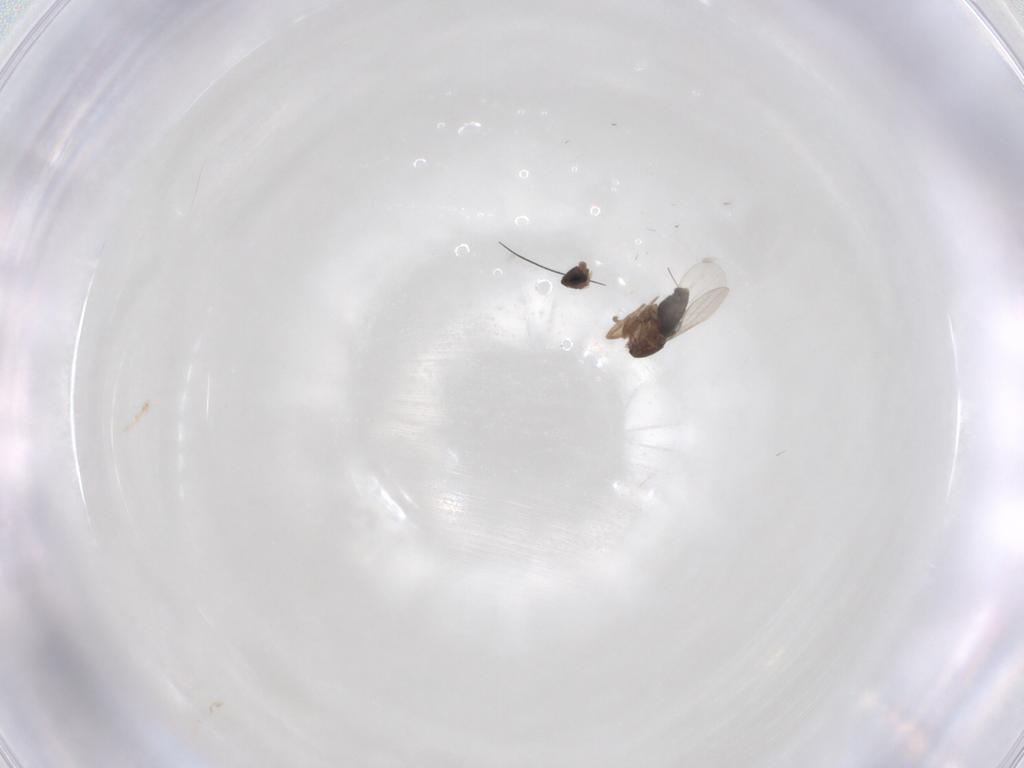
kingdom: Animalia
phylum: Arthropoda
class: Insecta
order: Diptera
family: Phoridae
